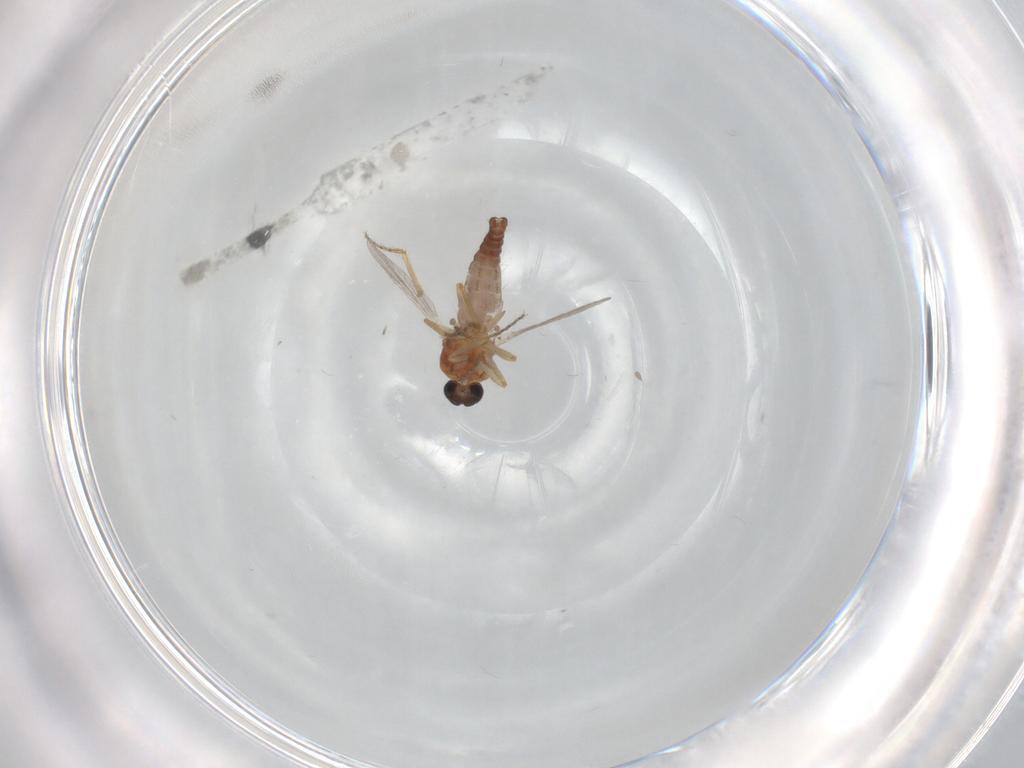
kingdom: Animalia
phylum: Arthropoda
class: Insecta
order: Diptera
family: Ceratopogonidae
